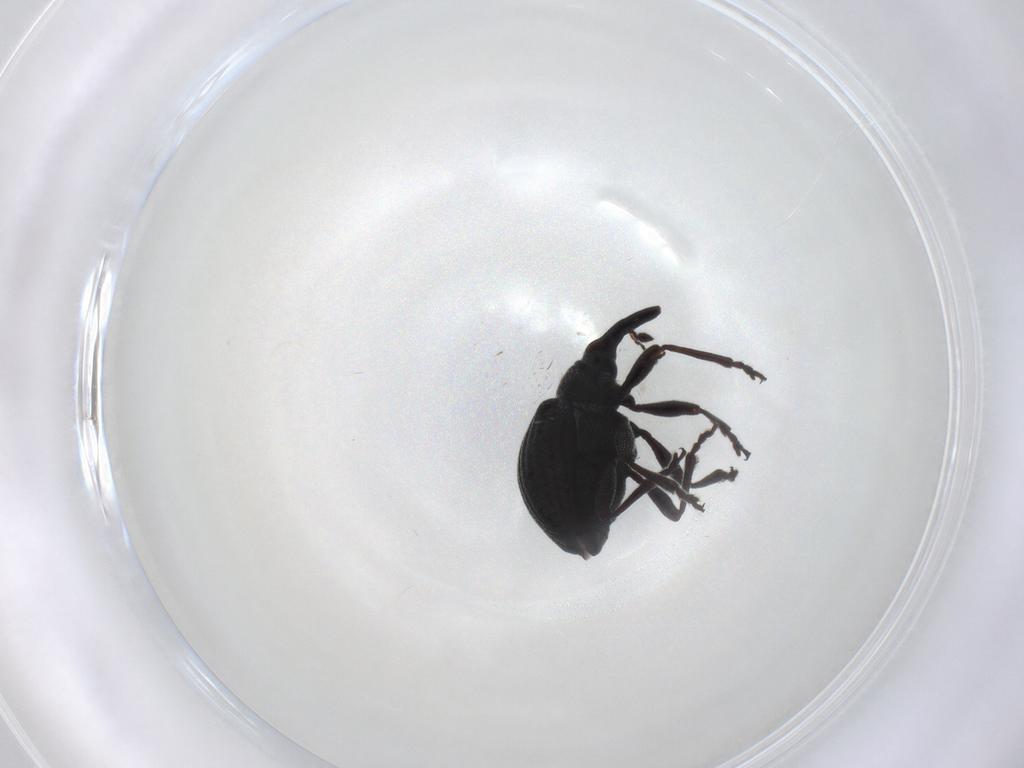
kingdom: Animalia
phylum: Arthropoda
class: Insecta
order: Coleoptera
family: Brentidae
